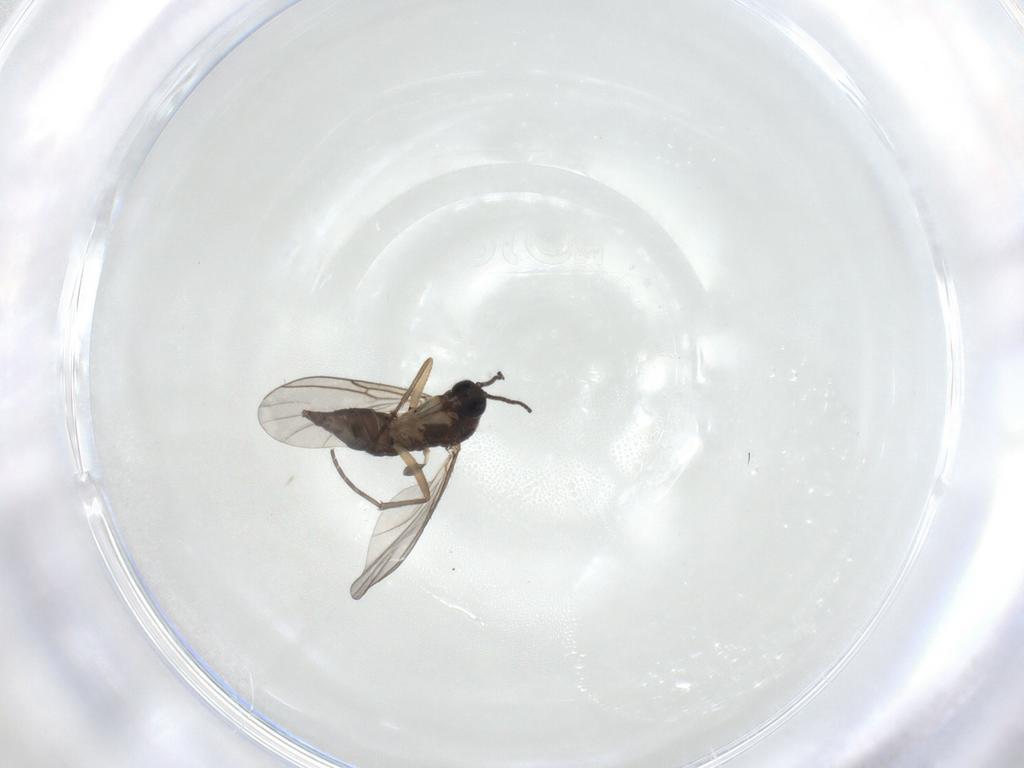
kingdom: Animalia
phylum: Arthropoda
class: Insecta
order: Diptera
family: Sciaridae
